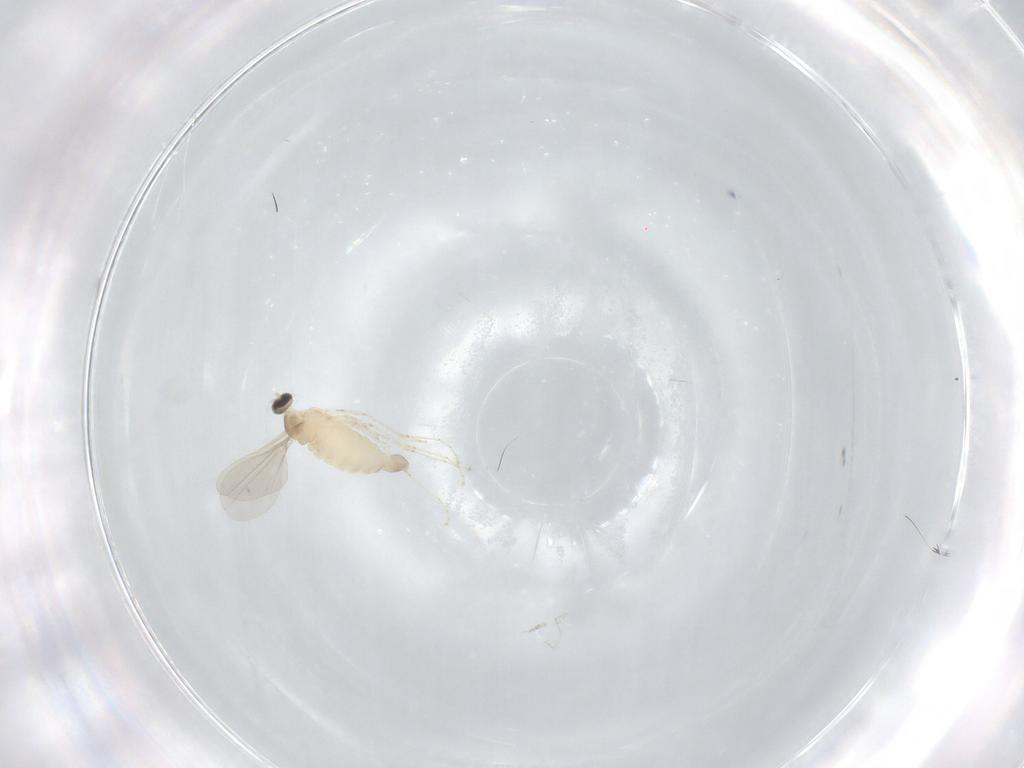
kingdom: Animalia
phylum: Arthropoda
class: Insecta
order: Diptera
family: Cecidomyiidae
